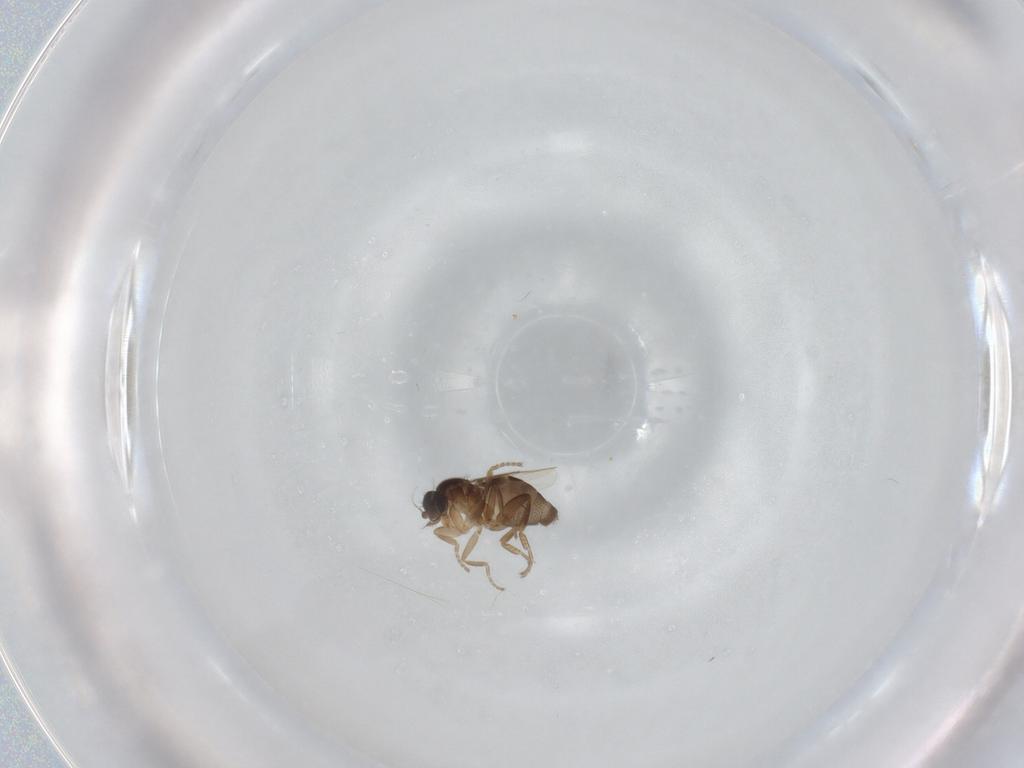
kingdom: Animalia
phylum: Arthropoda
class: Insecta
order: Diptera
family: Phoridae
